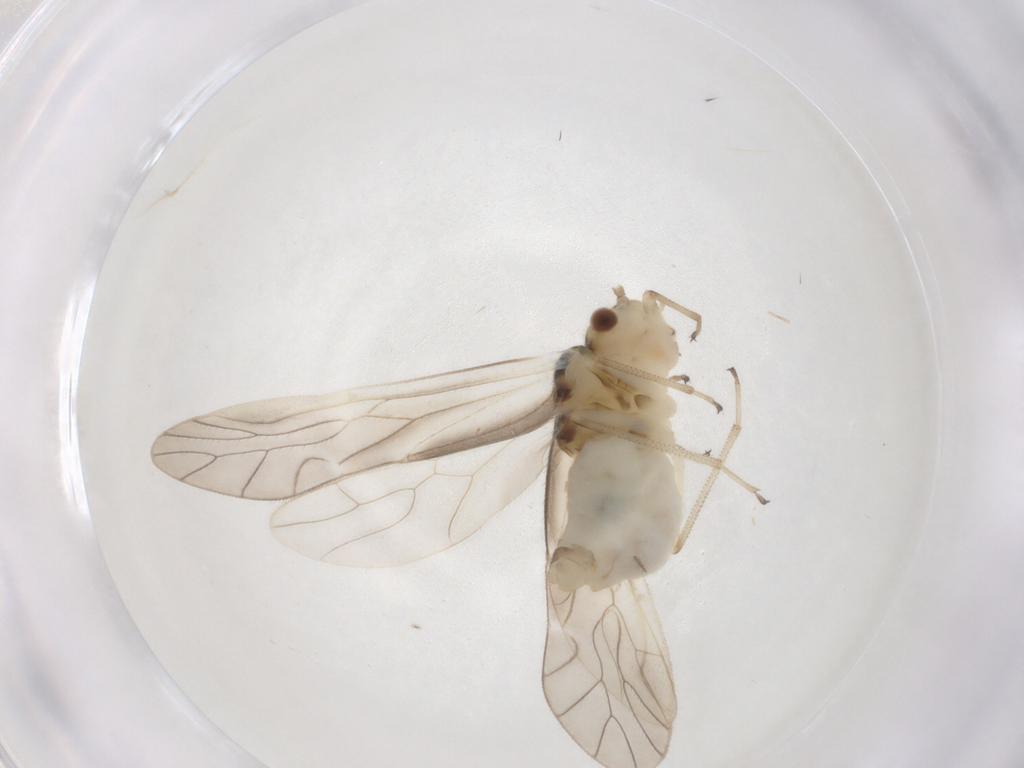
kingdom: Animalia
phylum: Arthropoda
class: Insecta
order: Psocodea
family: Caeciliusidae
